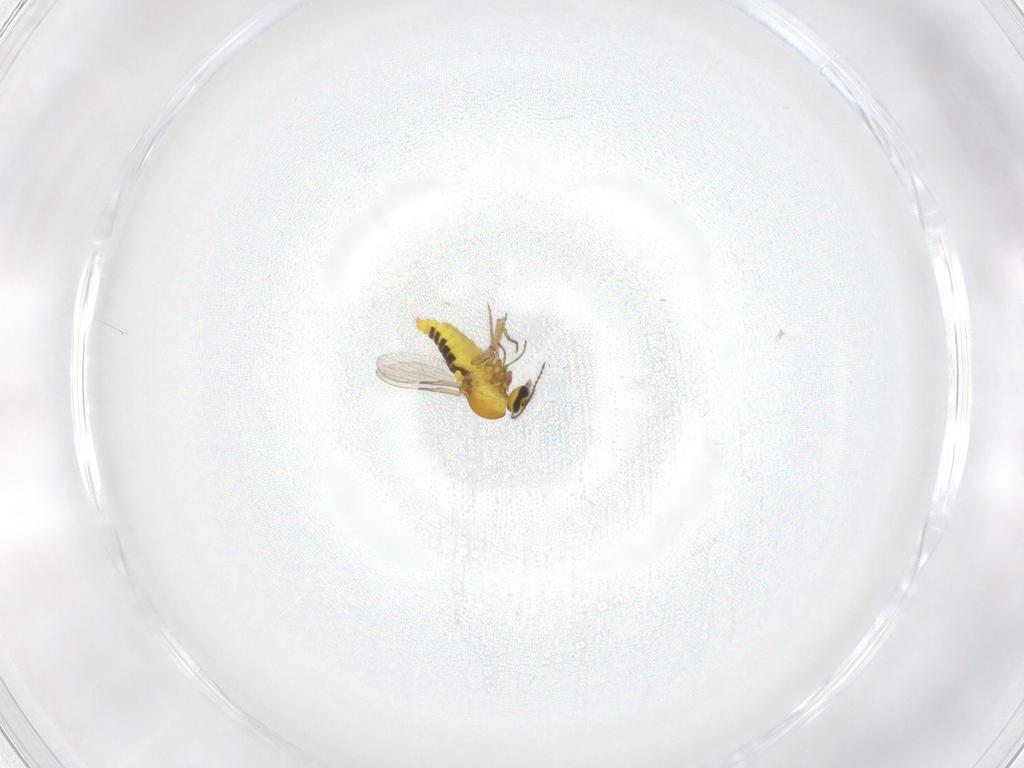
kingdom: Animalia
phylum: Arthropoda
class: Insecta
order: Diptera
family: Ceratopogonidae
